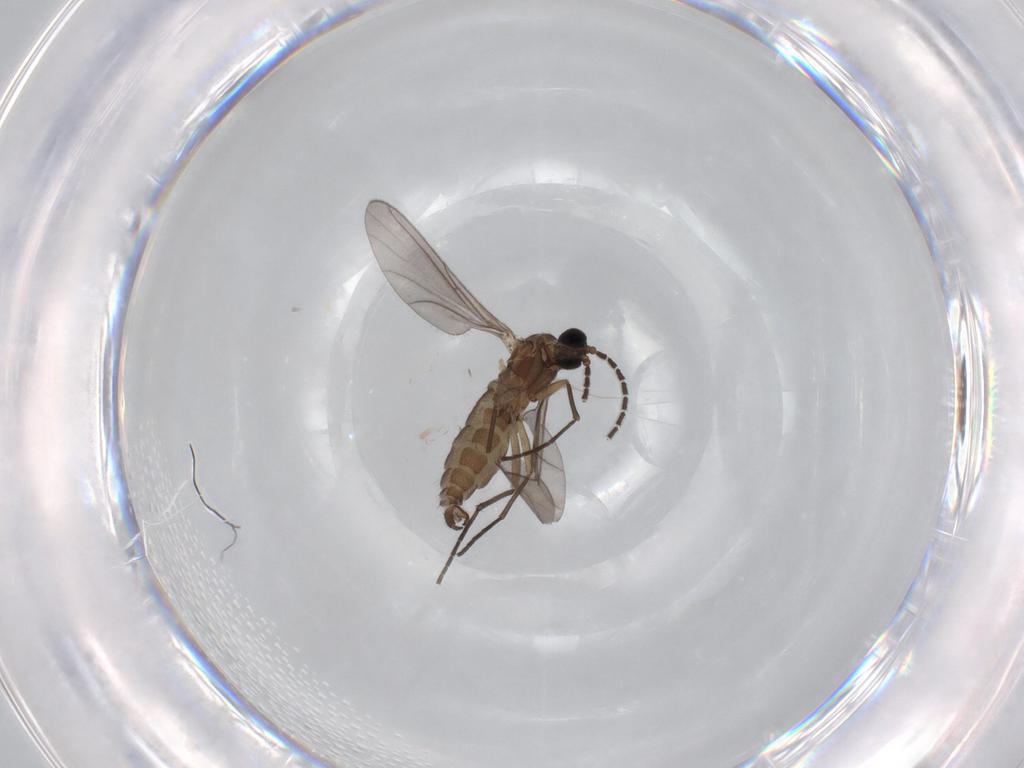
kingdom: Animalia
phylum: Arthropoda
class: Insecta
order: Diptera
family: Sciaridae
